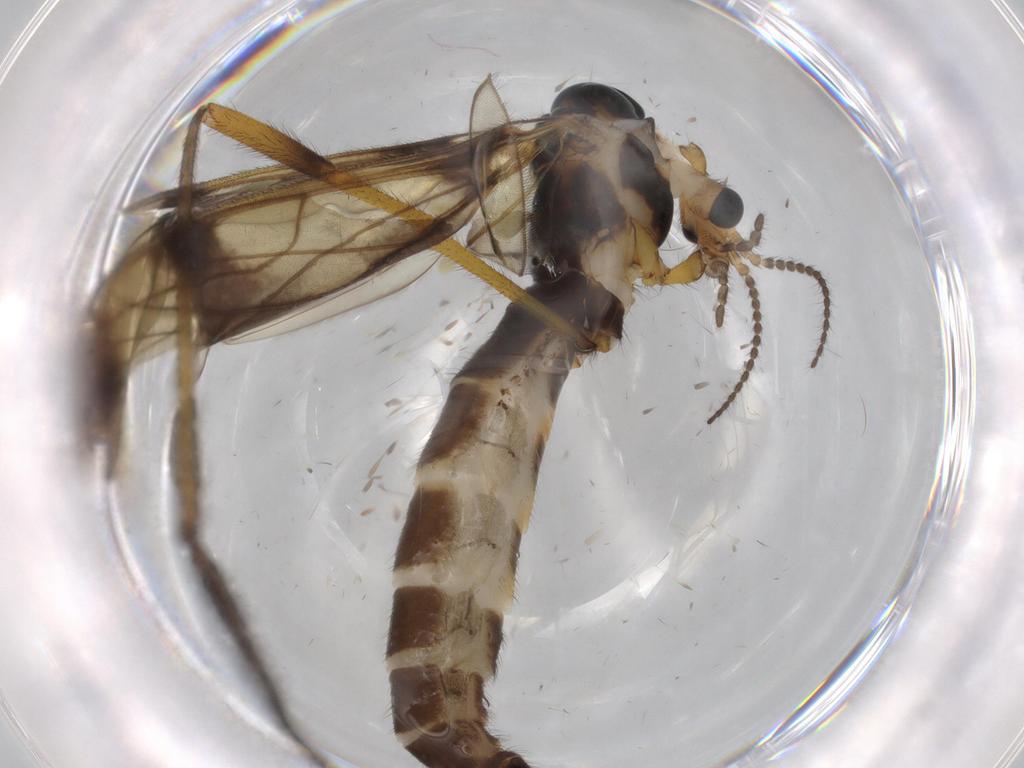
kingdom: Animalia
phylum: Arthropoda
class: Insecta
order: Diptera
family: Limoniidae
